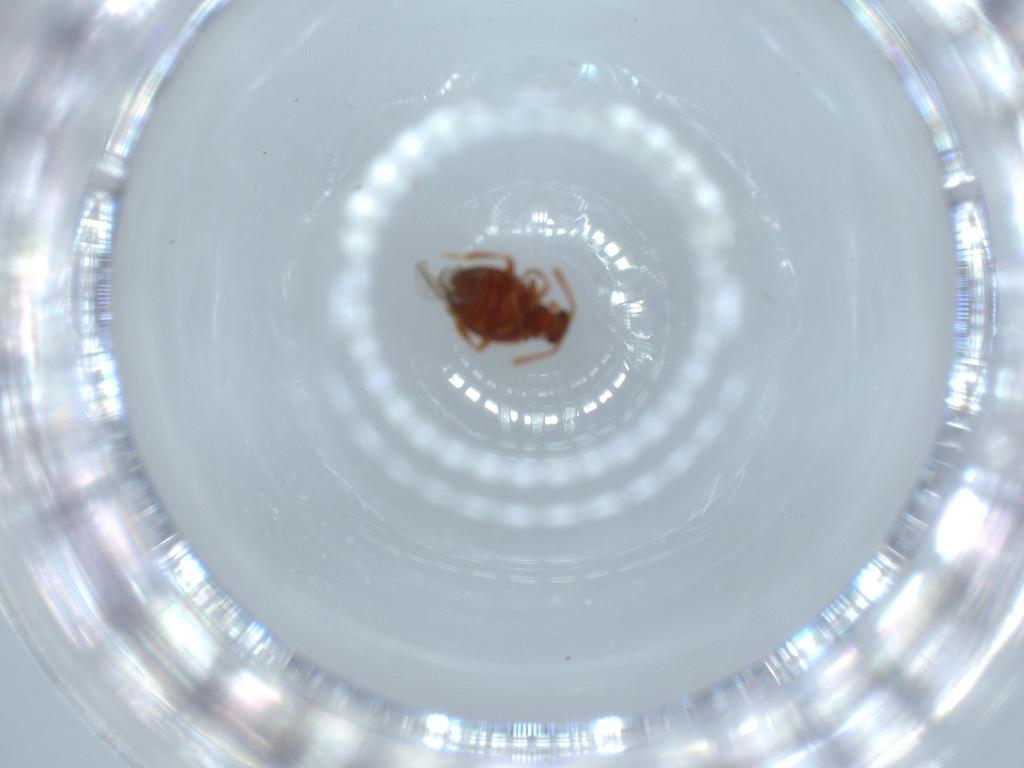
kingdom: Animalia
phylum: Arthropoda
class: Insecta
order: Coleoptera
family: Aderidae
